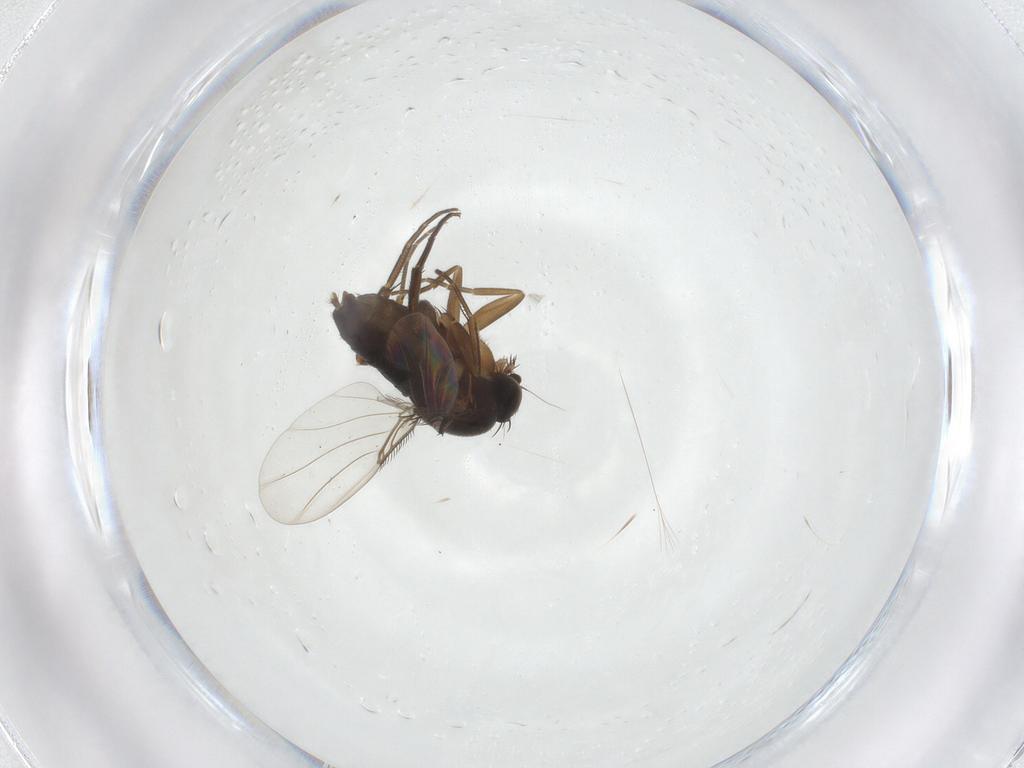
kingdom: Animalia
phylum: Arthropoda
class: Insecta
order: Diptera
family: Phoridae
